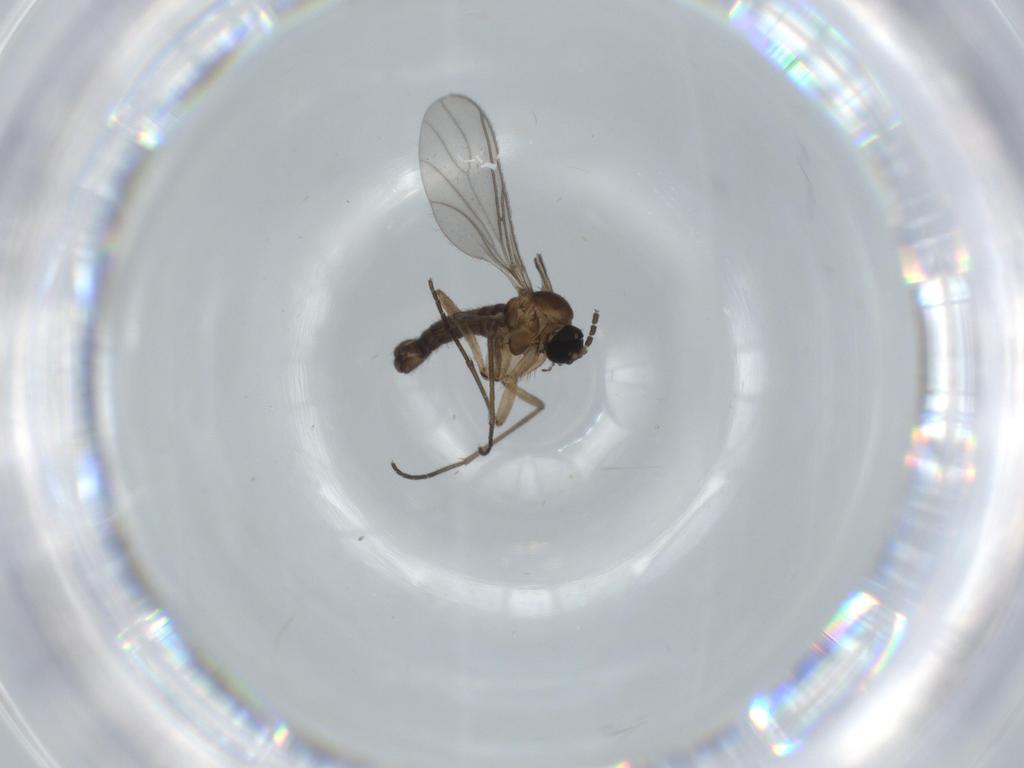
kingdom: Animalia
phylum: Arthropoda
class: Insecta
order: Diptera
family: Sciaridae
